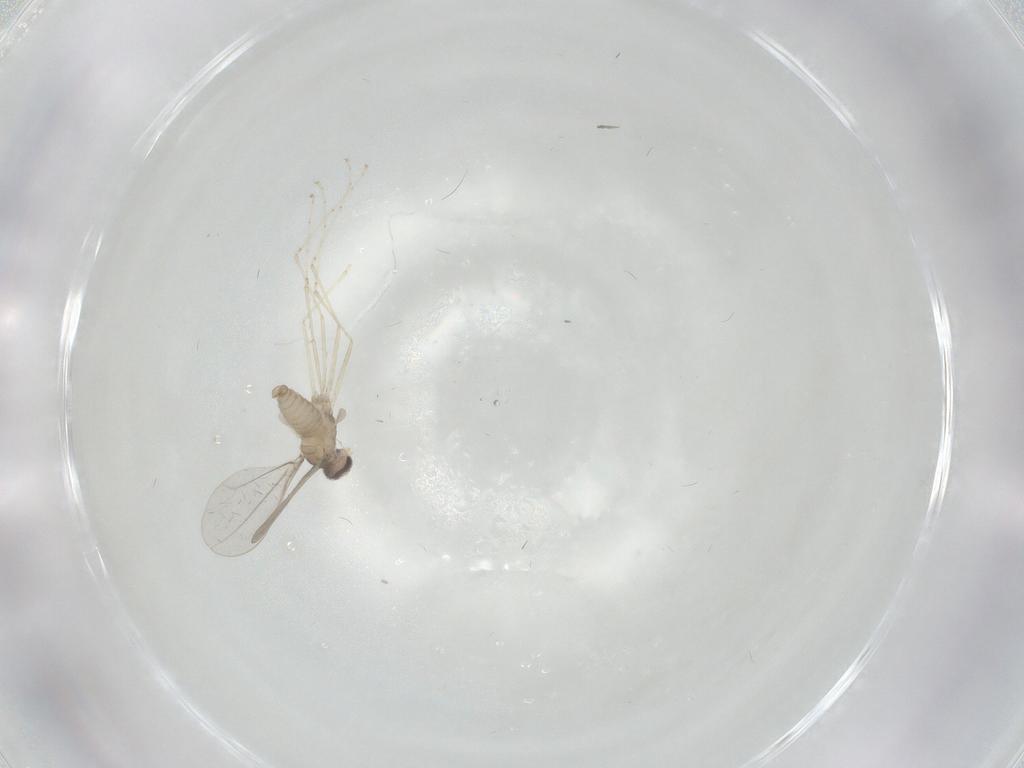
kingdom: Animalia
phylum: Arthropoda
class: Insecta
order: Diptera
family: Cecidomyiidae
